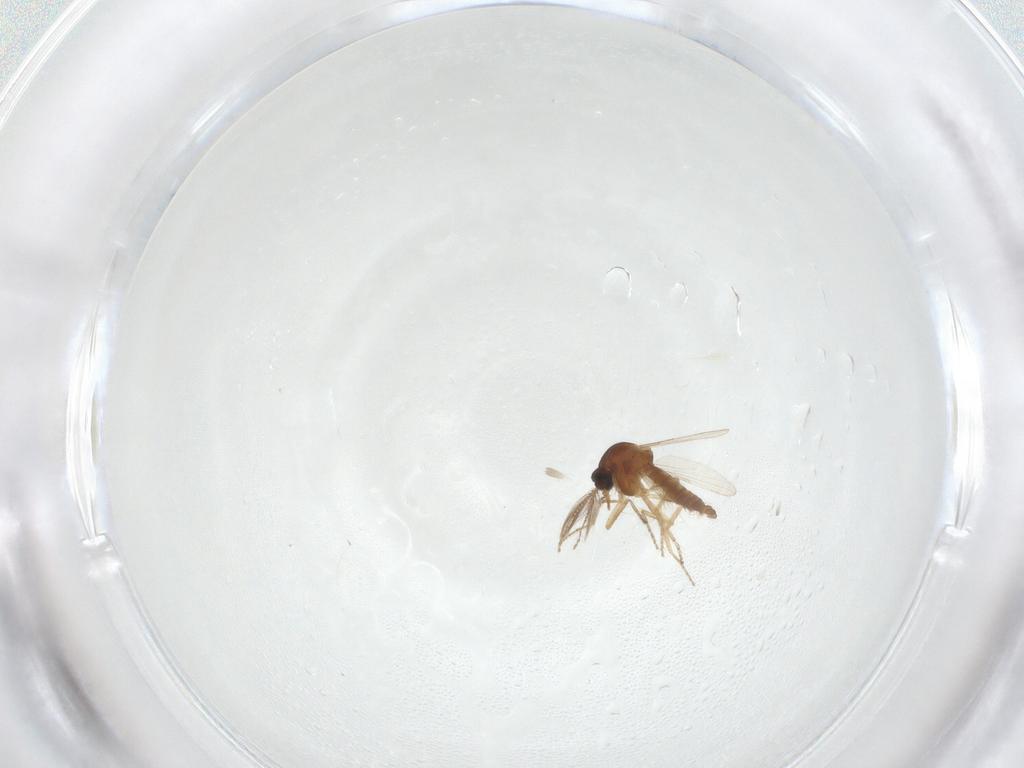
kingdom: Animalia
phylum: Arthropoda
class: Insecta
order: Diptera
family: Ceratopogonidae
